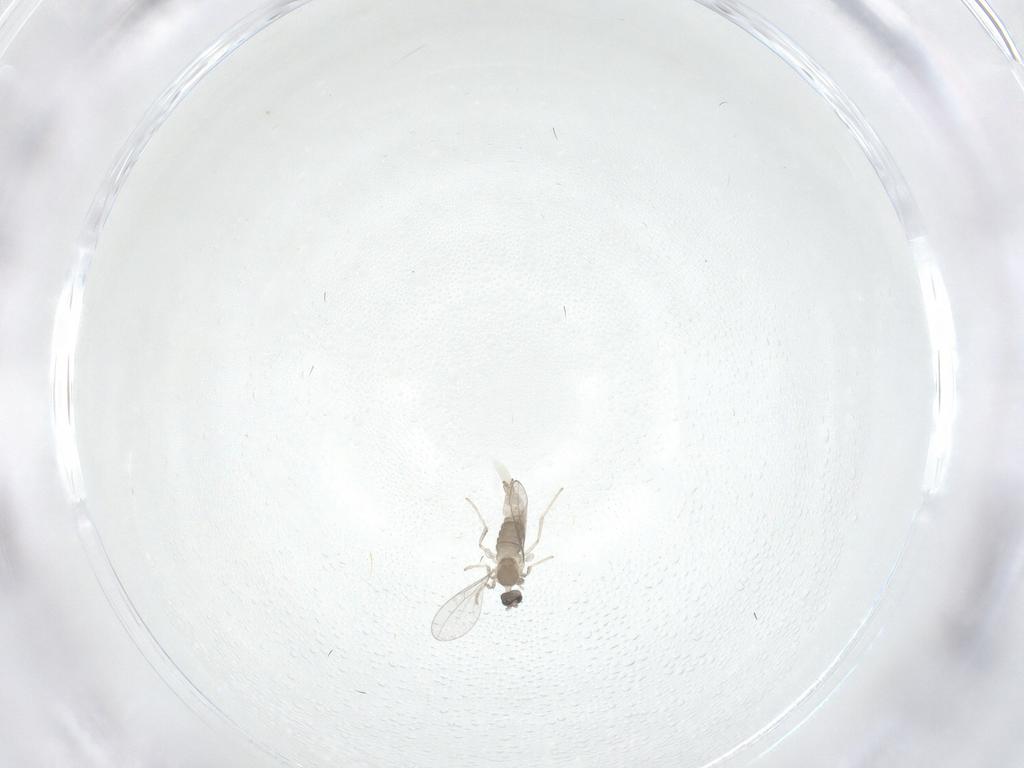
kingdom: Animalia
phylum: Arthropoda
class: Insecta
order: Diptera
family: Cecidomyiidae
